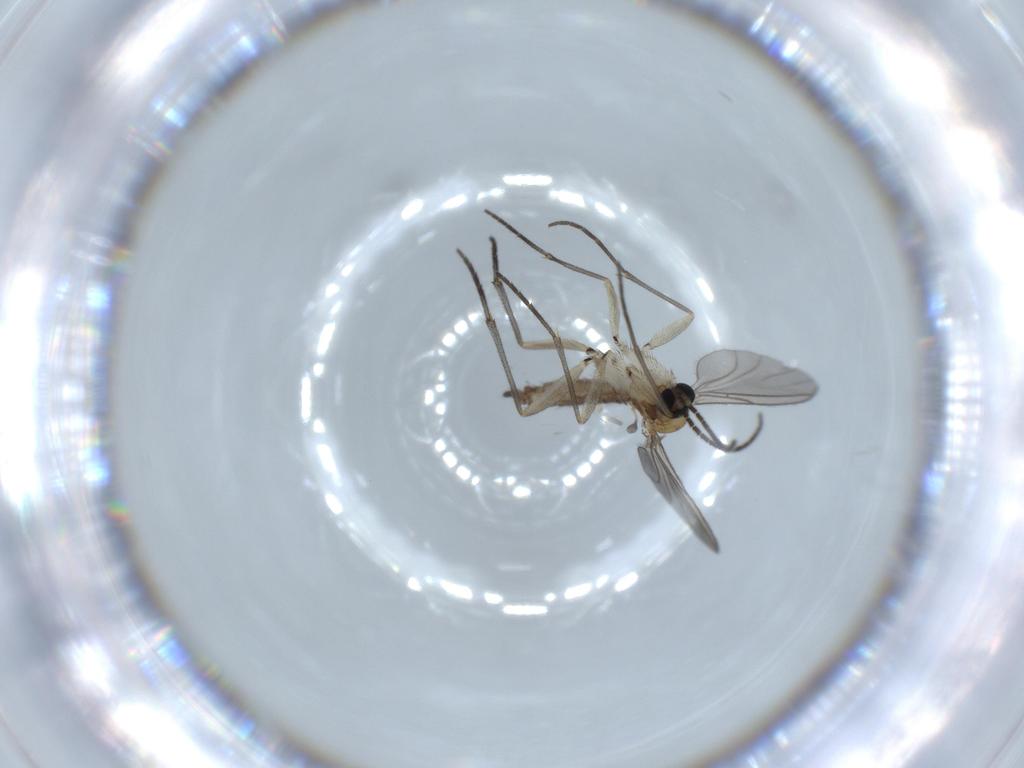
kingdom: Animalia
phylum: Arthropoda
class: Insecta
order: Diptera
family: Sciaridae
